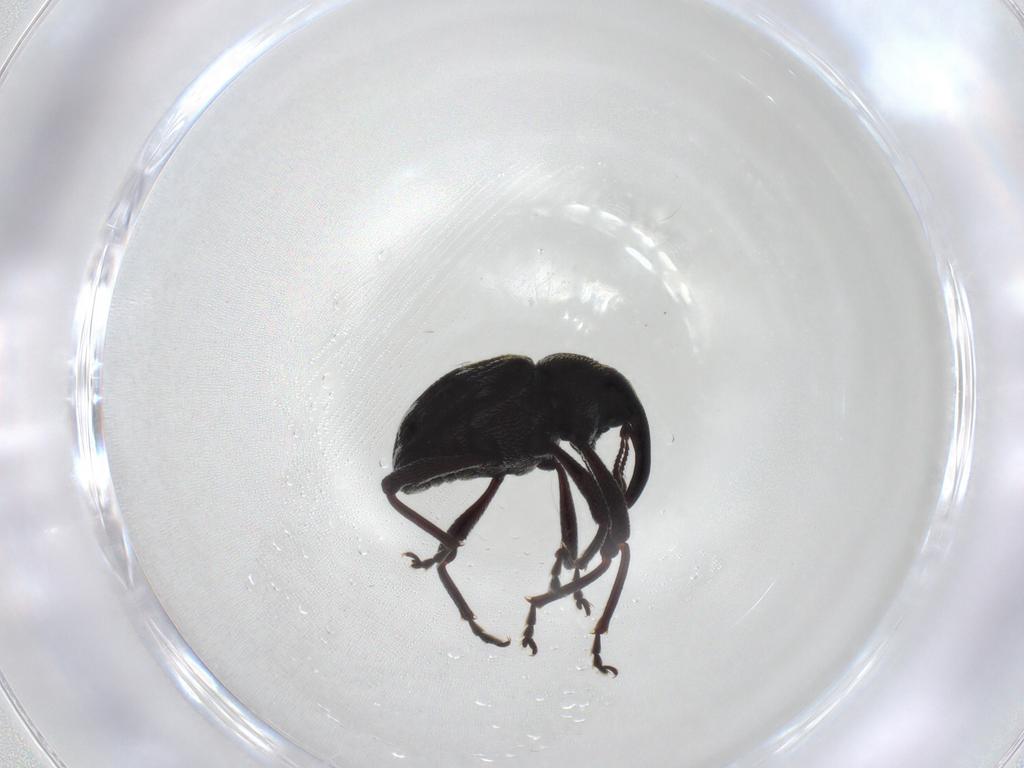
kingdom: Animalia
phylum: Arthropoda
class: Insecta
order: Coleoptera
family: Curculionidae
